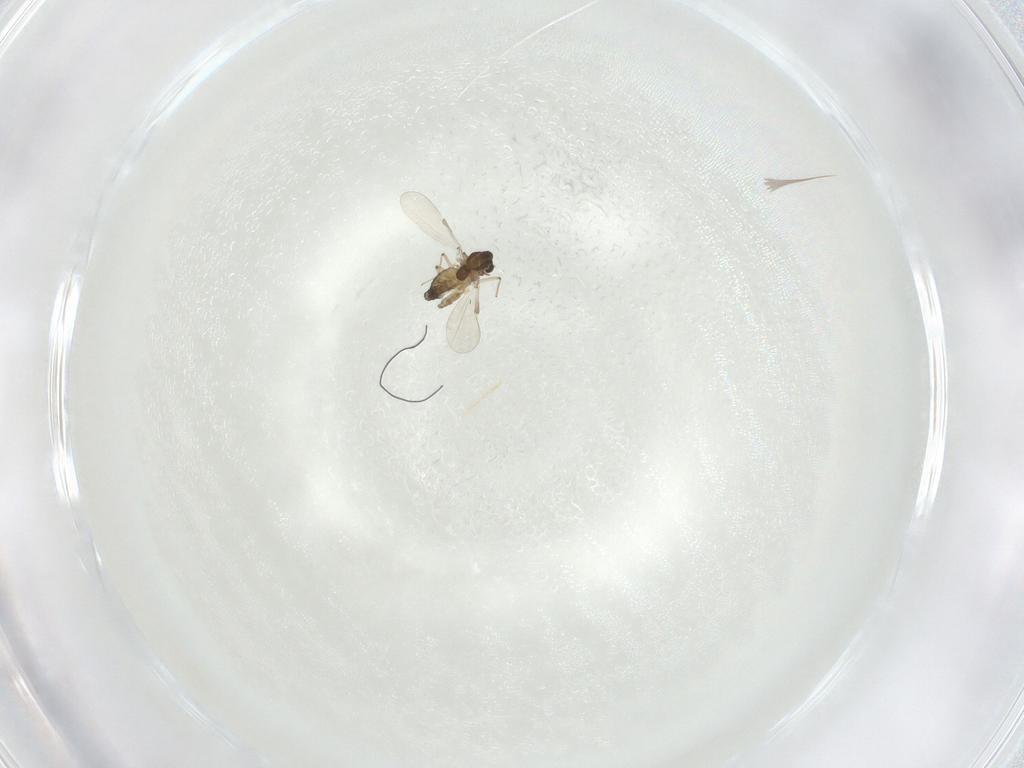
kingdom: Animalia
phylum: Arthropoda
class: Insecta
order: Diptera
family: Chironomidae
